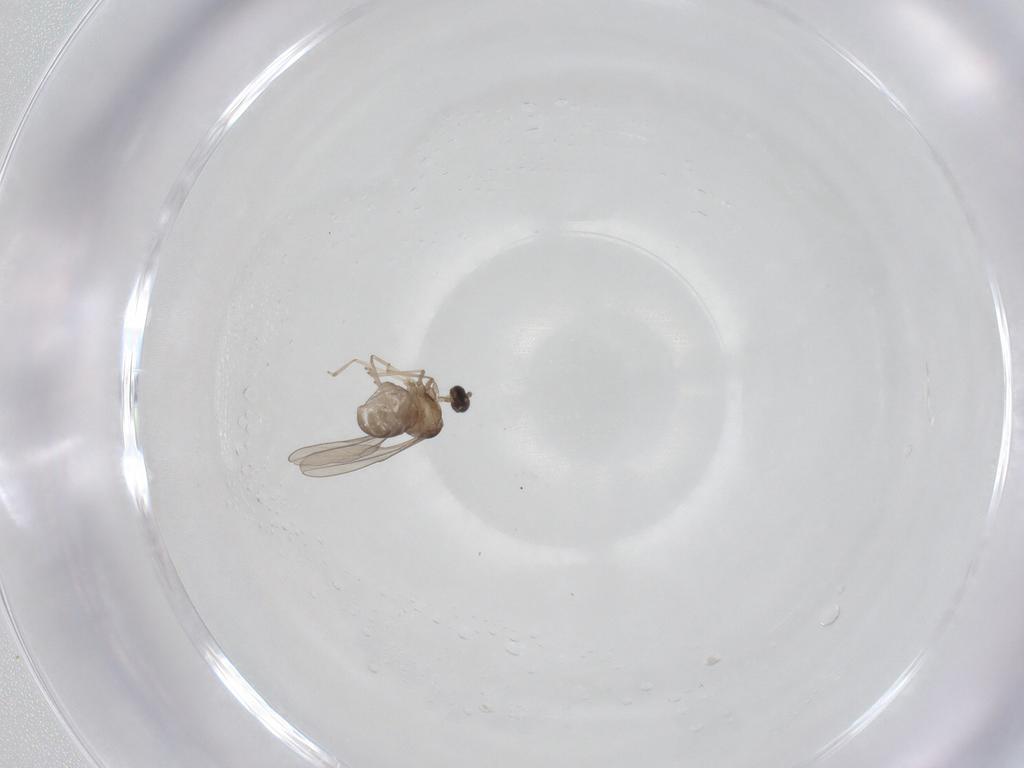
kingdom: Animalia
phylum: Arthropoda
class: Insecta
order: Diptera
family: Cecidomyiidae
